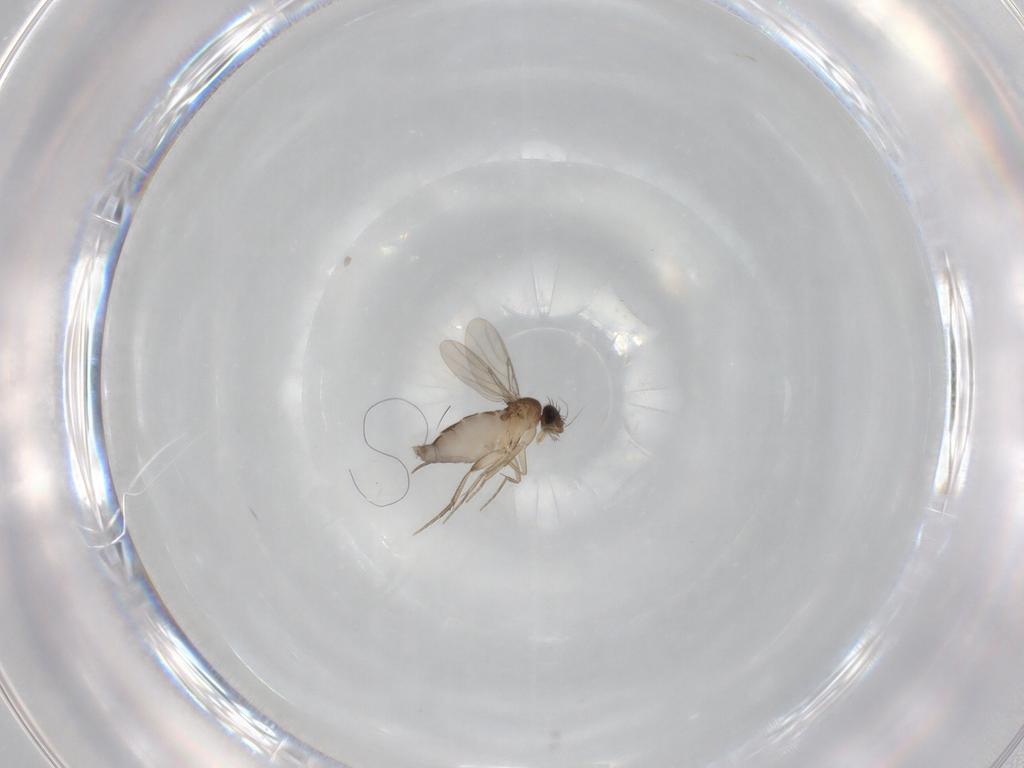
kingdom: Animalia
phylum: Arthropoda
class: Insecta
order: Diptera
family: Phoridae
